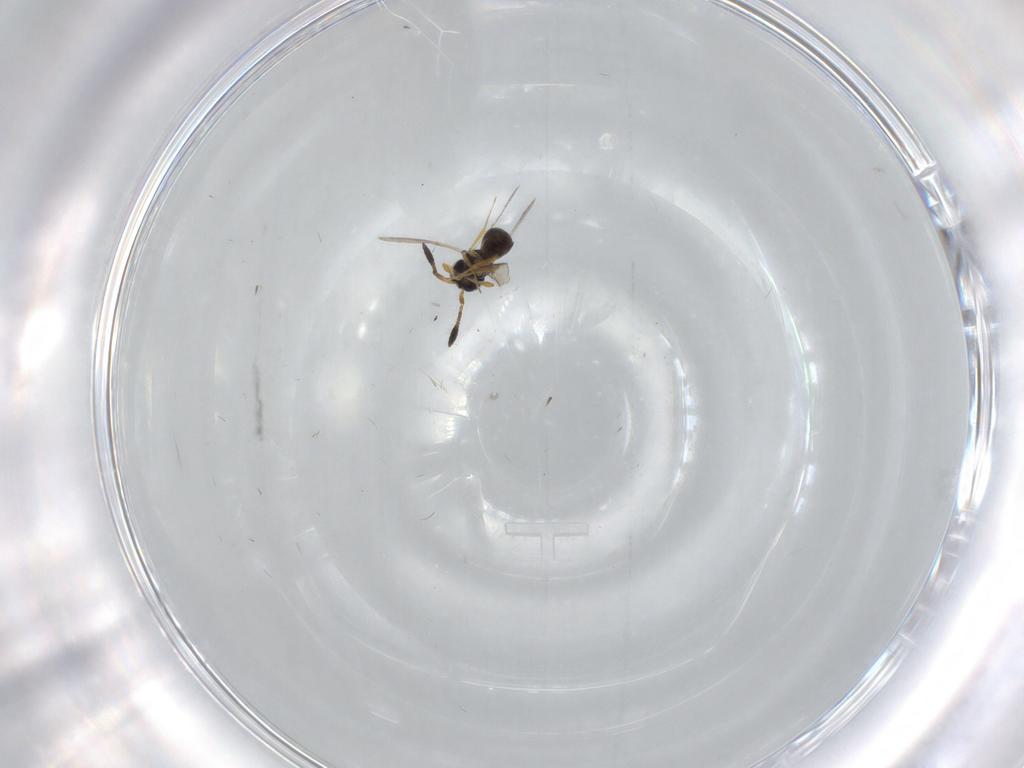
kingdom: Animalia
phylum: Arthropoda
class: Insecta
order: Hymenoptera
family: Scelionidae
